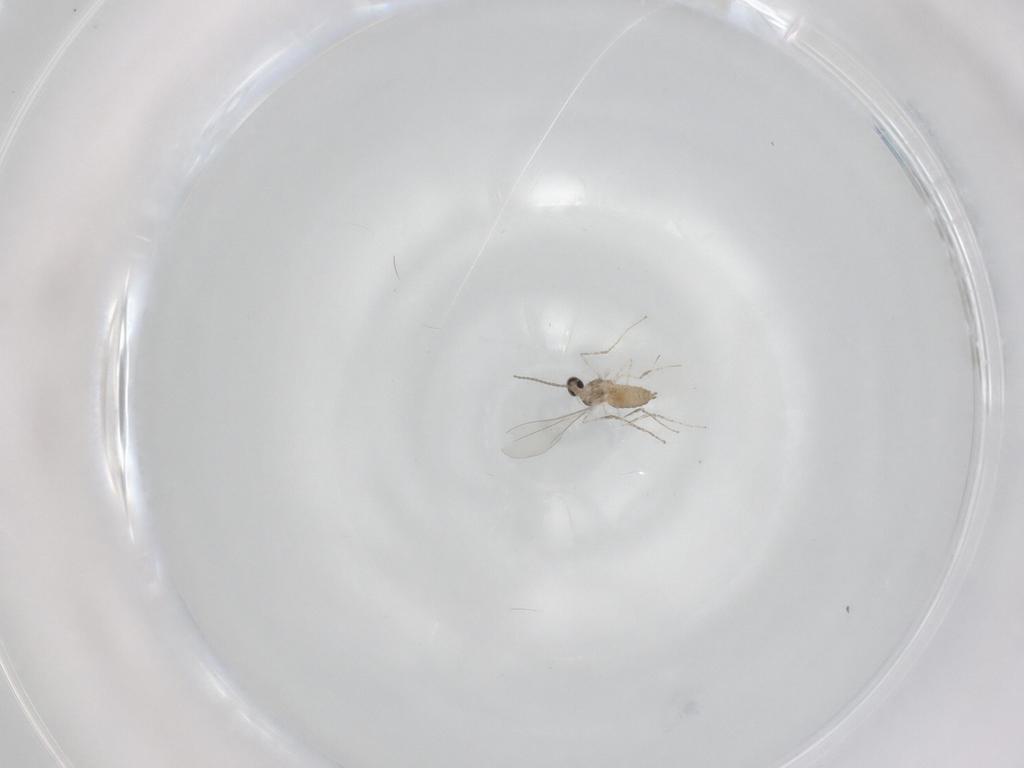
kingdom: Animalia
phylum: Arthropoda
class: Insecta
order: Diptera
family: Cecidomyiidae
